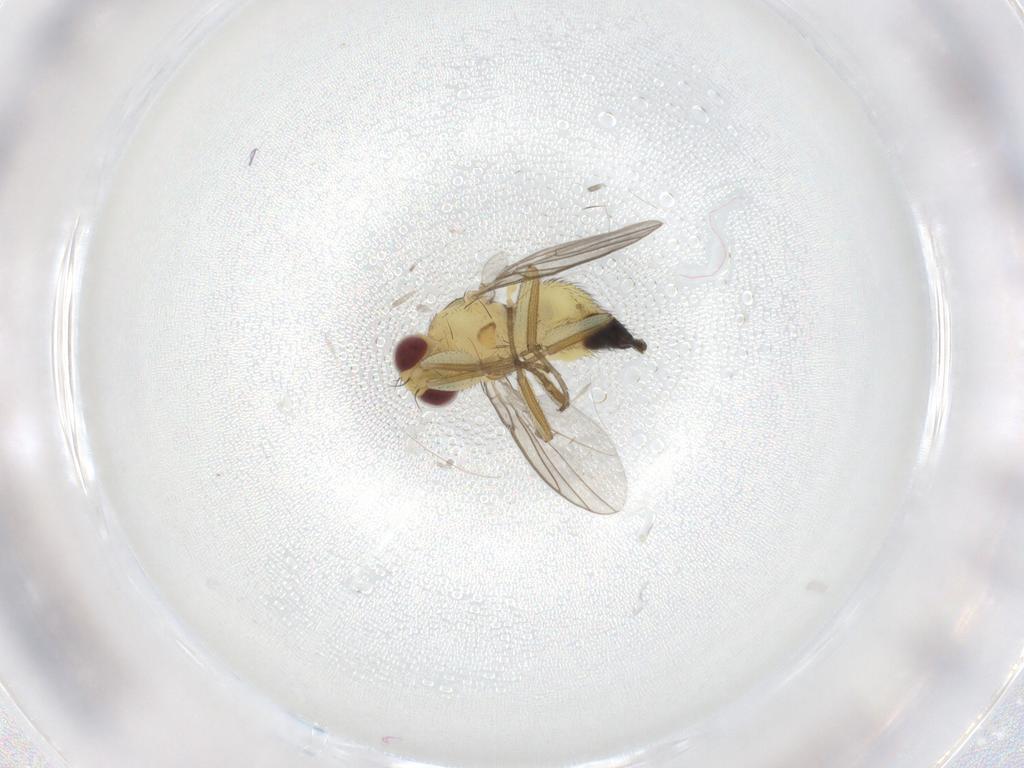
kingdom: Animalia
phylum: Arthropoda
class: Insecta
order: Diptera
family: Agromyzidae
